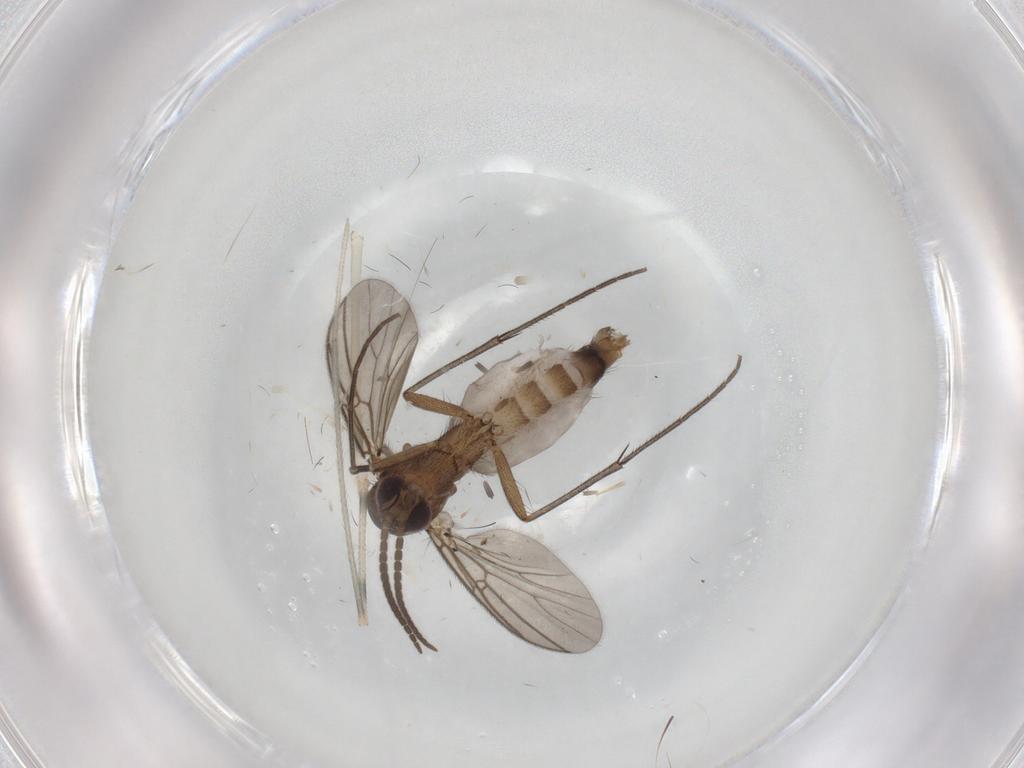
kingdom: Animalia
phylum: Arthropoda
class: Insecta
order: Diptera
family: Mycetophilidae
